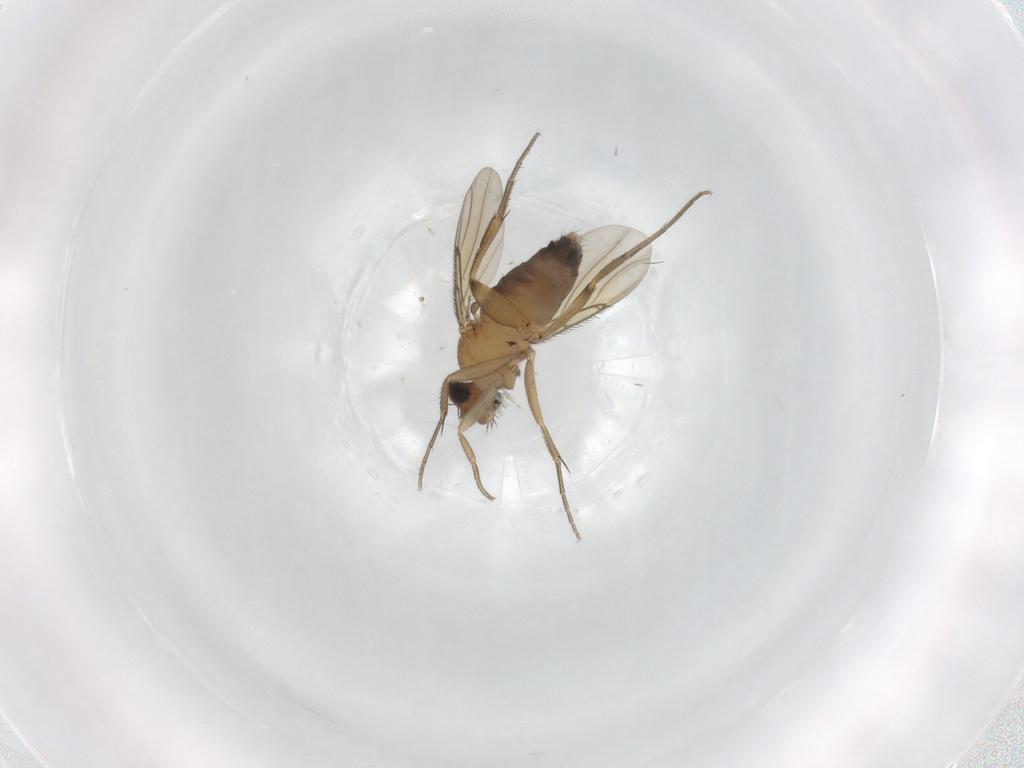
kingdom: Animalia
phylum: Arthropoda
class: Insecta
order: Diptera
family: Phoridae
